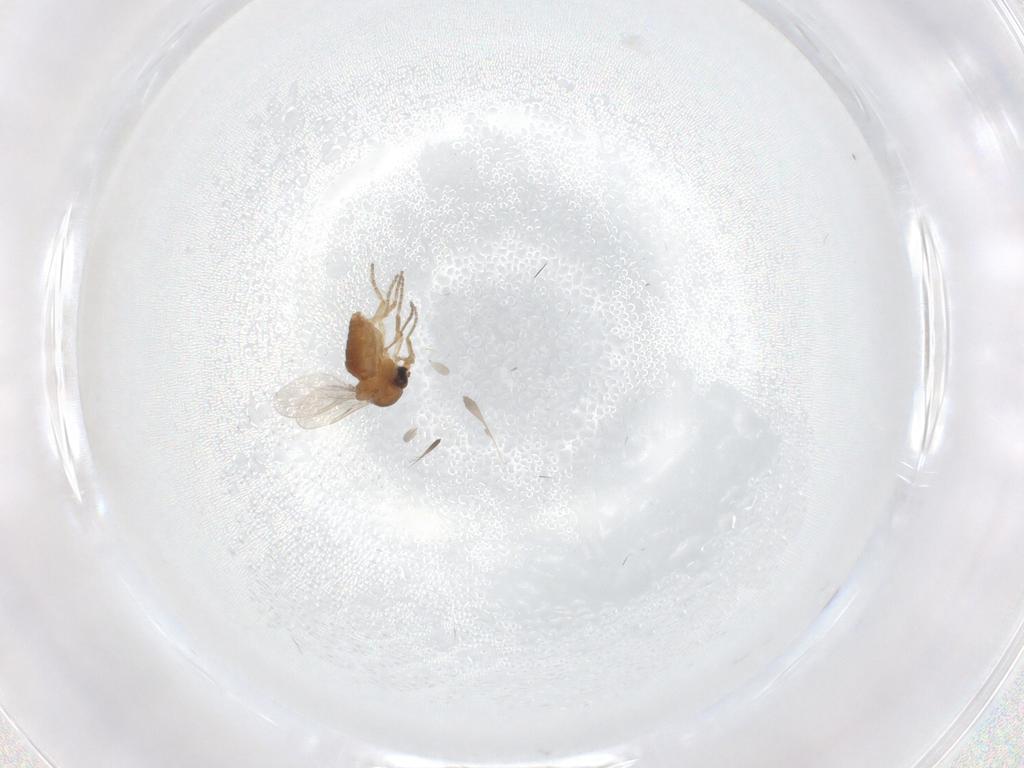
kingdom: Animalia
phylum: Arthropoda
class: Insecta
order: Diptera
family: Ceratopogonidae
